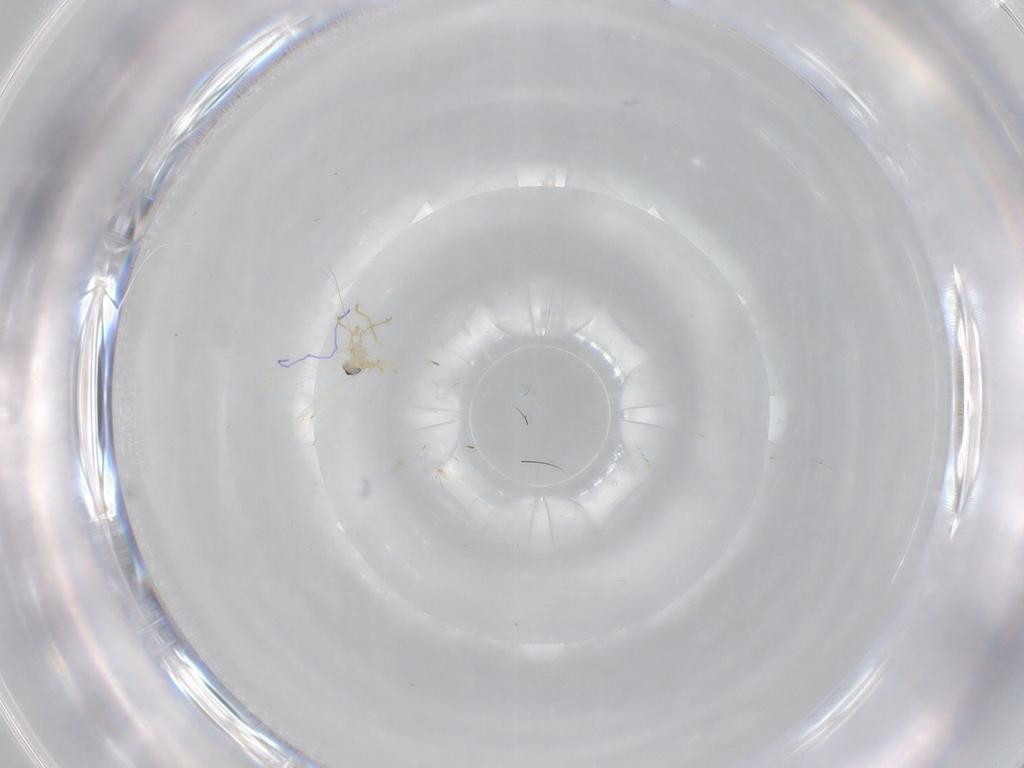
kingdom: Animalia
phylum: Arthropoda
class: Insecta
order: Diptera
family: Cecidomyiidae
